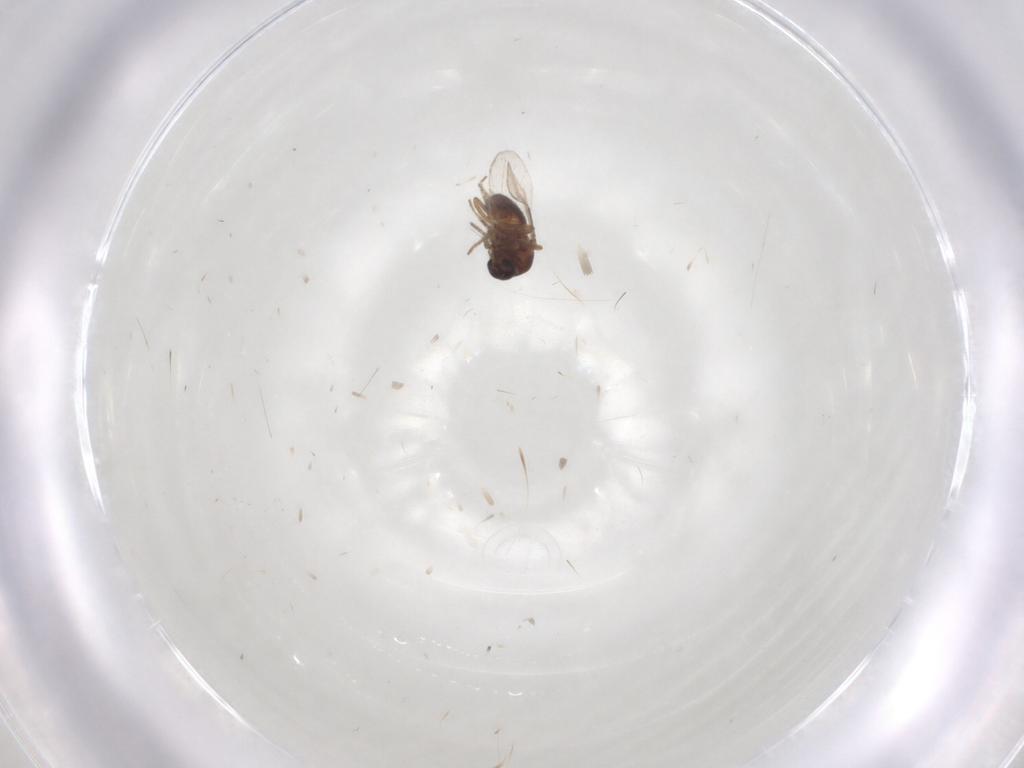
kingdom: Animalia
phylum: Arthropoda
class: Insecta
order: Diptera
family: Ceratopogonidae
